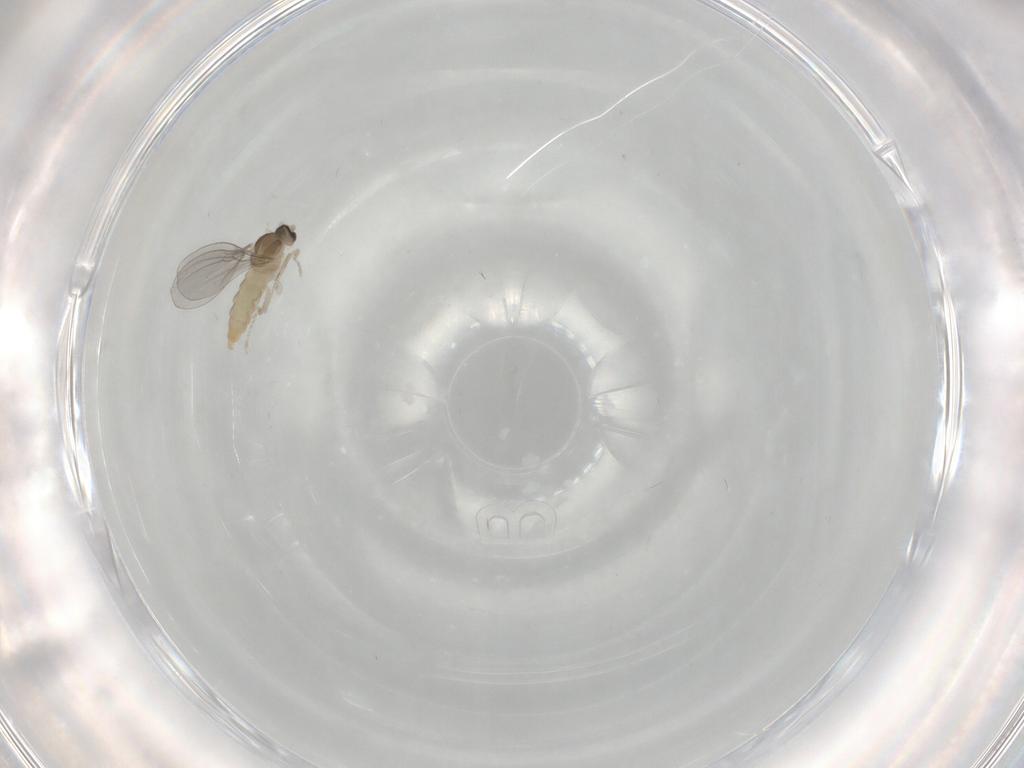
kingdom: Animalia
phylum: Arthropoda
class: Insecta
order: Diptera
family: Cecidomyiidae
